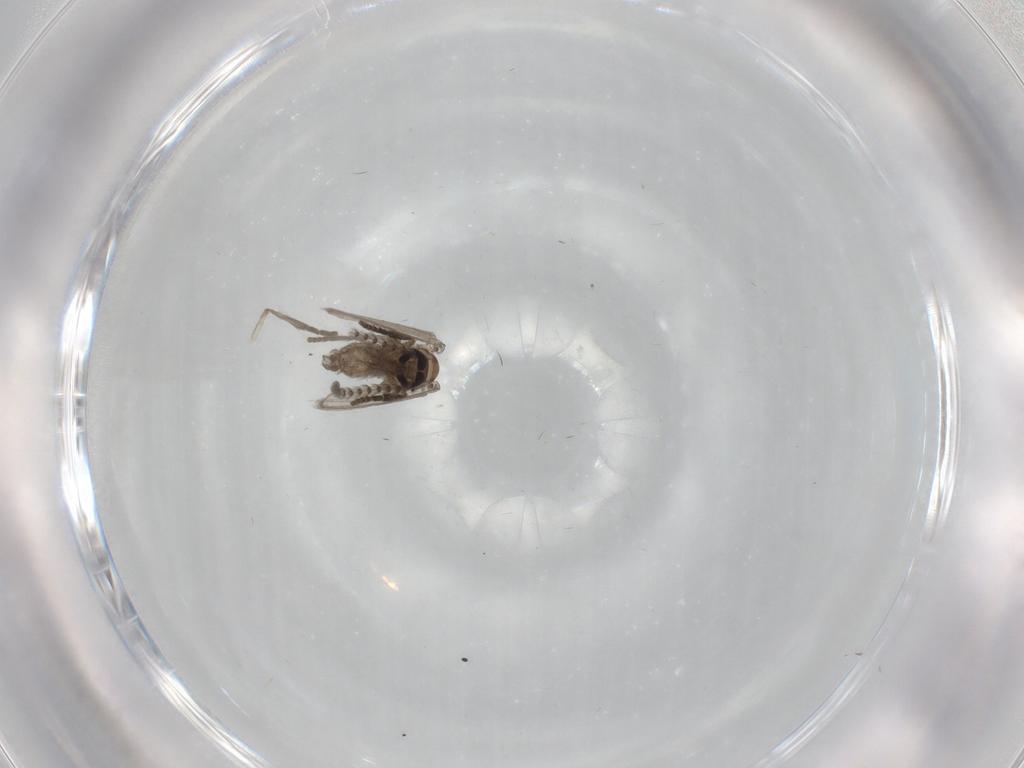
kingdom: Animalia
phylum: Arthropoda
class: Insecta
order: Diptera
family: Psychodidae
